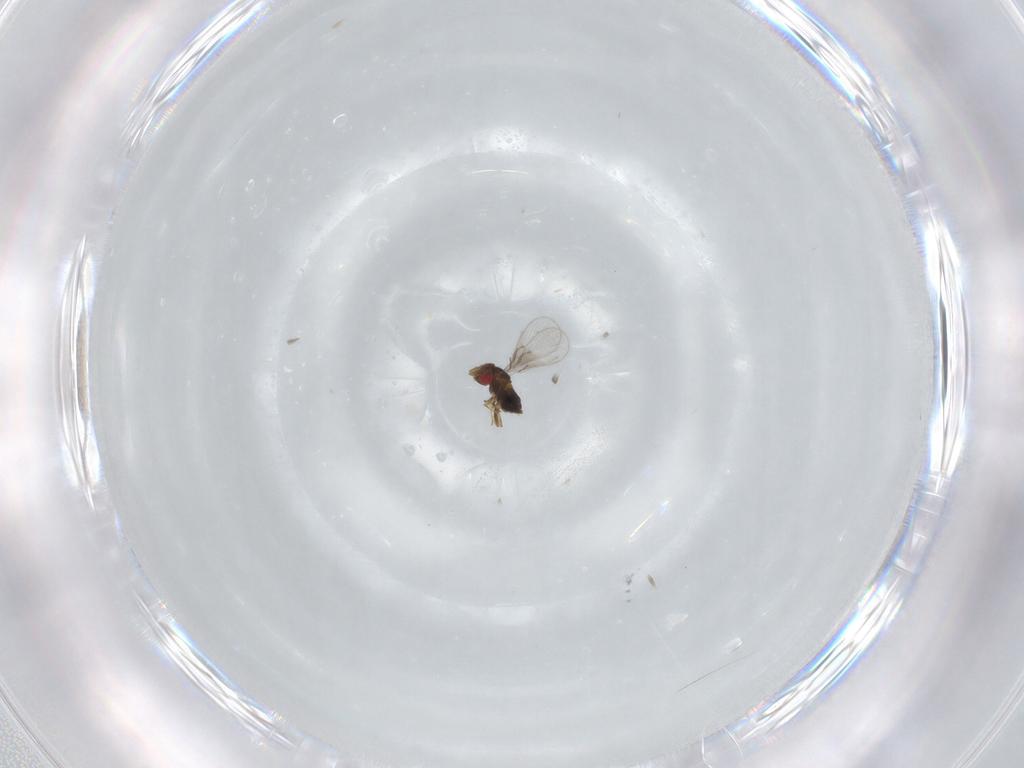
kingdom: Animalia
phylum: Arthropoda
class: Insecta
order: Hymenoptera
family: Trichogrammatidae
